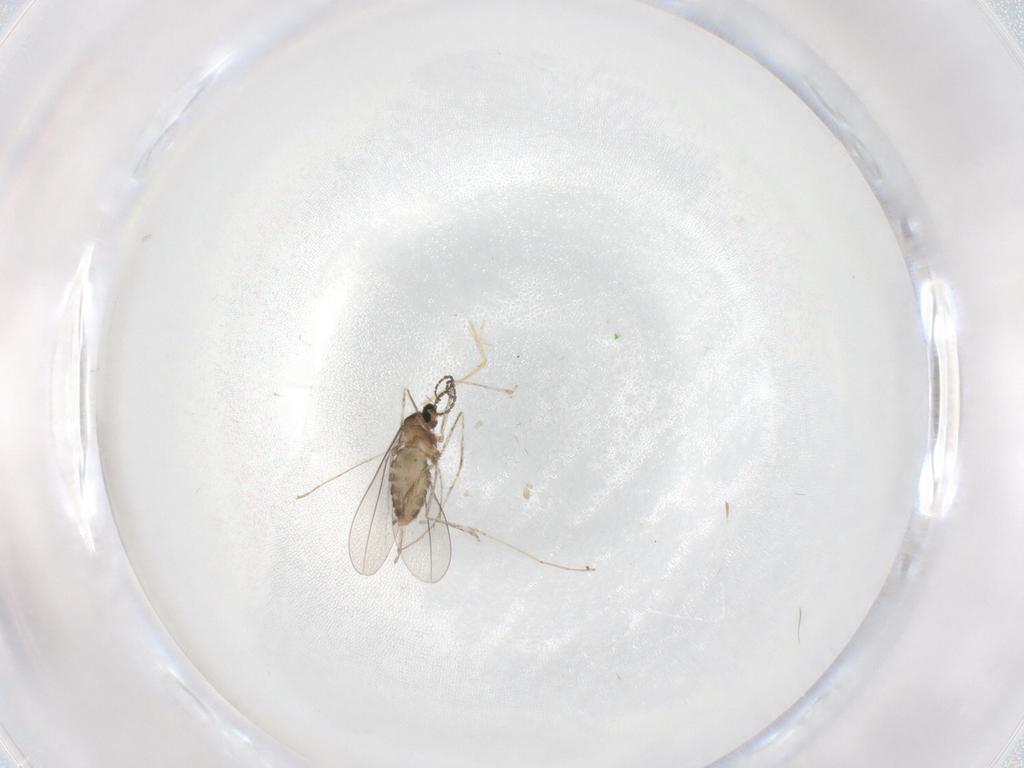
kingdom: Animalia
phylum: Arthropoda
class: Insecta
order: Diptera
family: Cecidomyiidae
